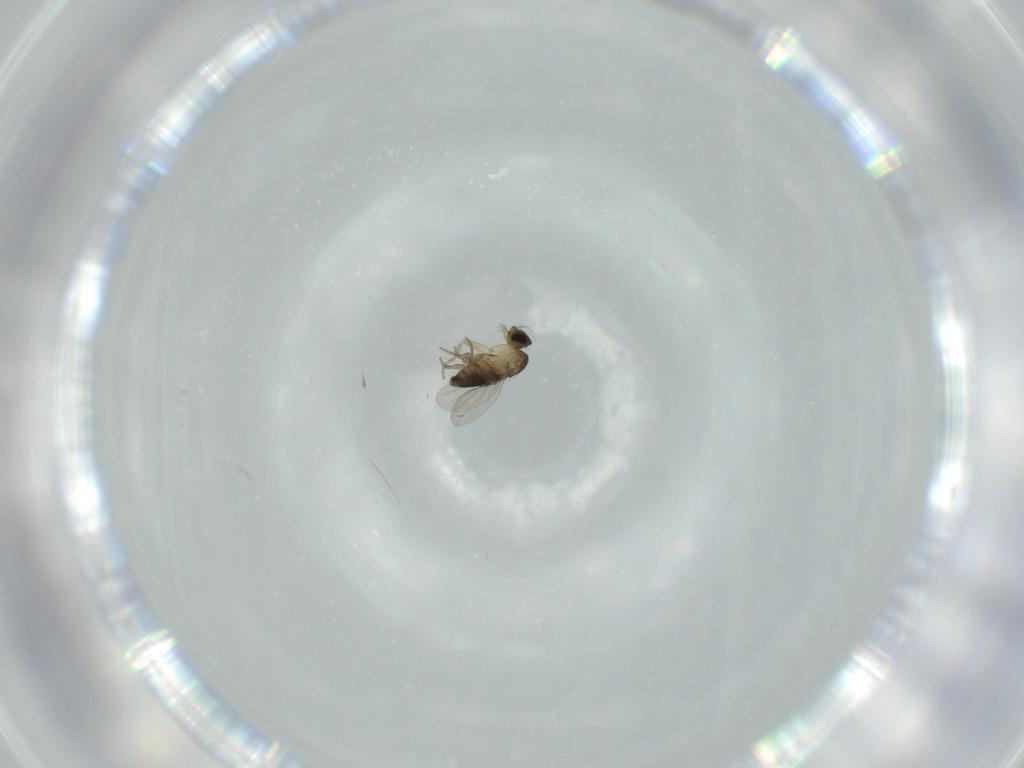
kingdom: Animalia
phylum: Arthropoda
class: Insecta
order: Diptera
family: Phoridae
